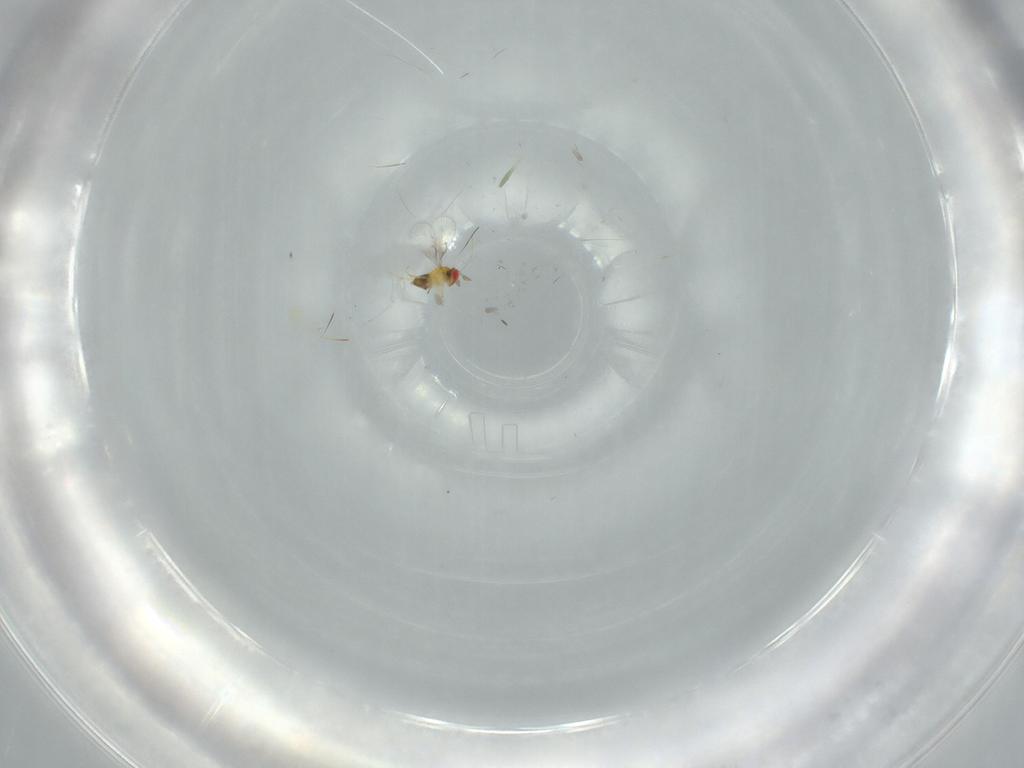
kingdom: Animalia
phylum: Arthropoda
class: Insecta
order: Hymenoptera
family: Trichogrammatidae
